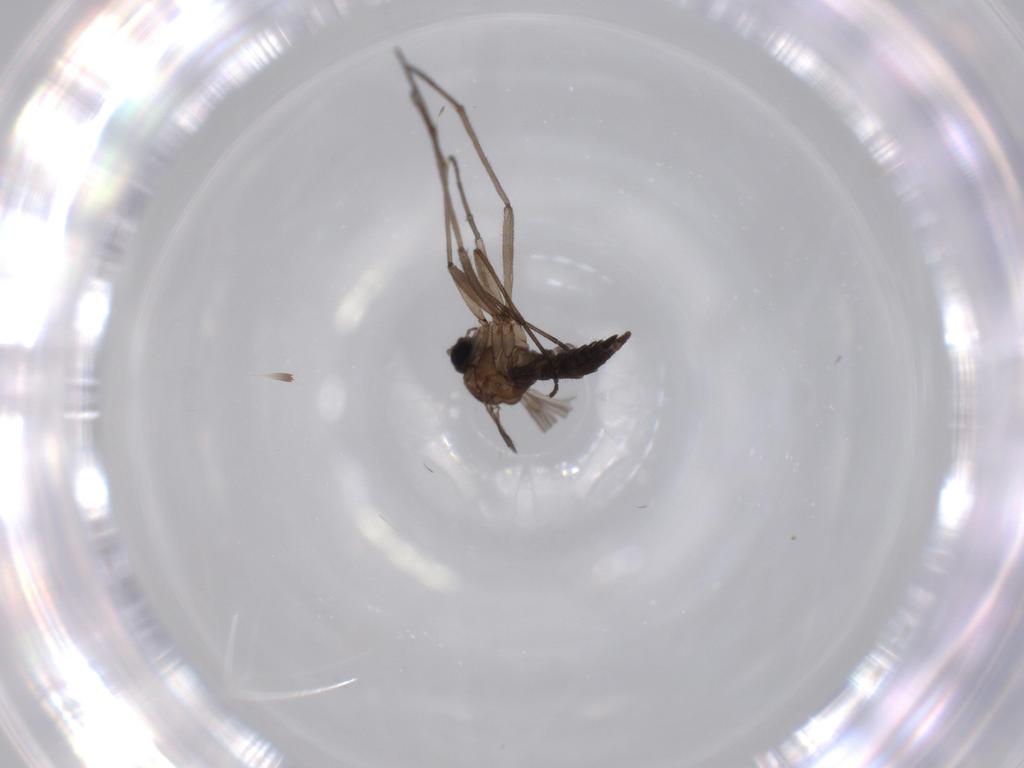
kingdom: Animalia
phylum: Arthropoda
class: Insecta
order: Diptera
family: Sciaridae
